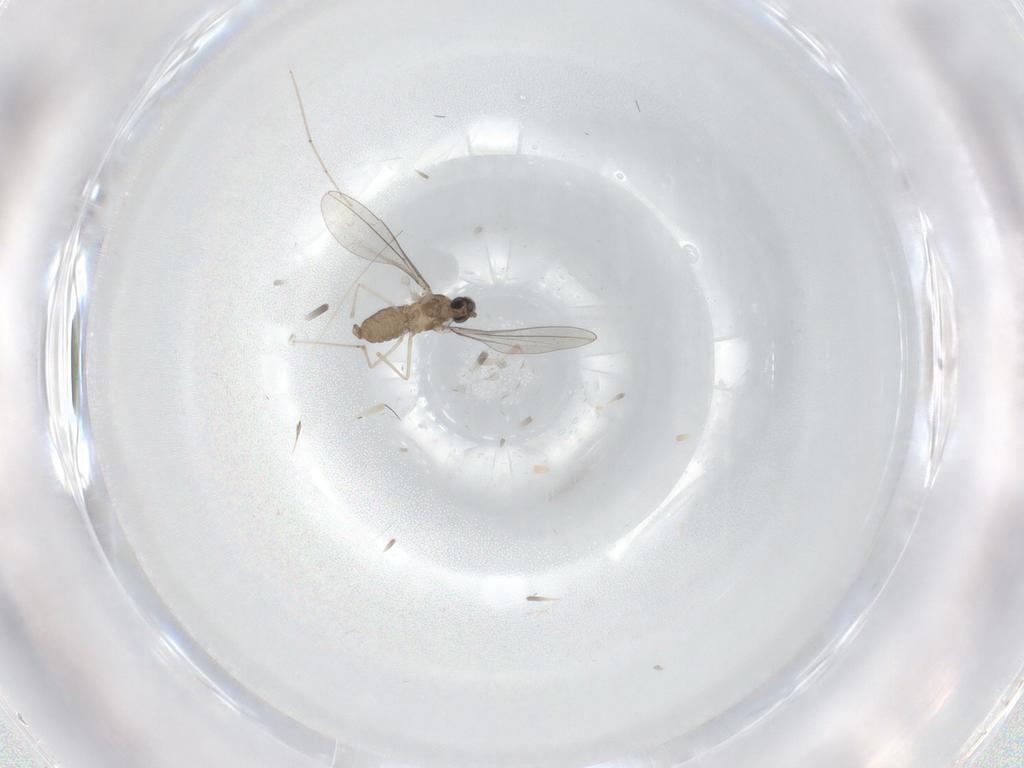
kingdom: Animalia
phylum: Arthropoda
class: Insecta
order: Diptera
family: Cecidomyiidae
